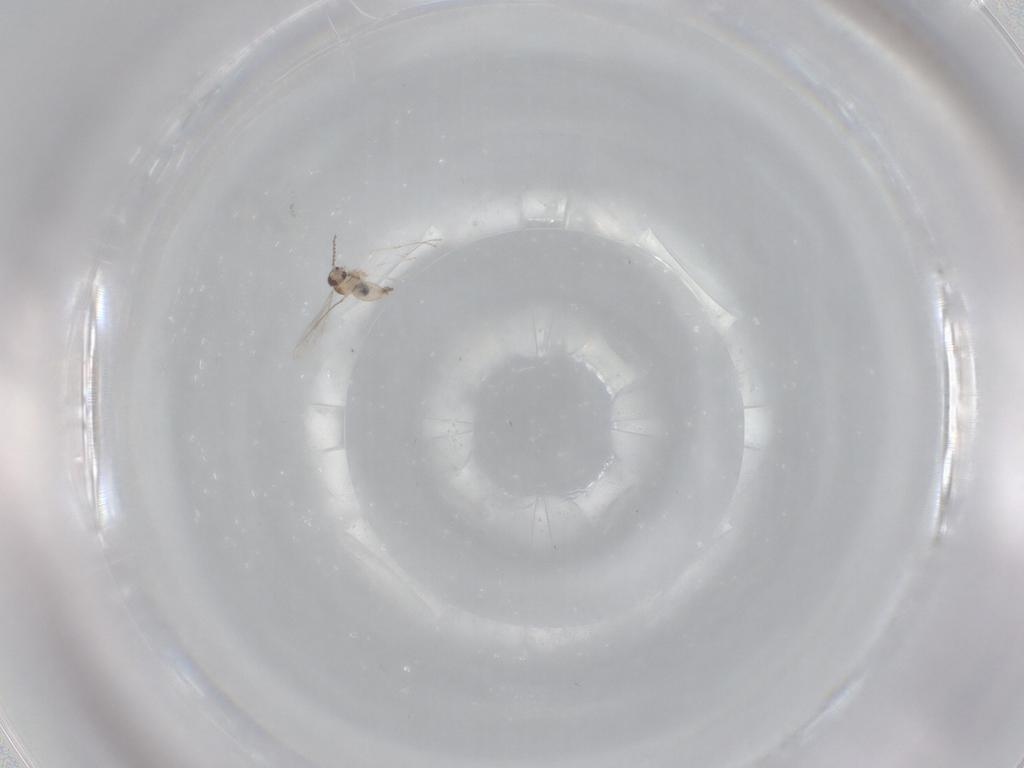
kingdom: Animalia
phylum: Arthropoda
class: Insecta
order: Diptera
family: Cecidomyiidae
